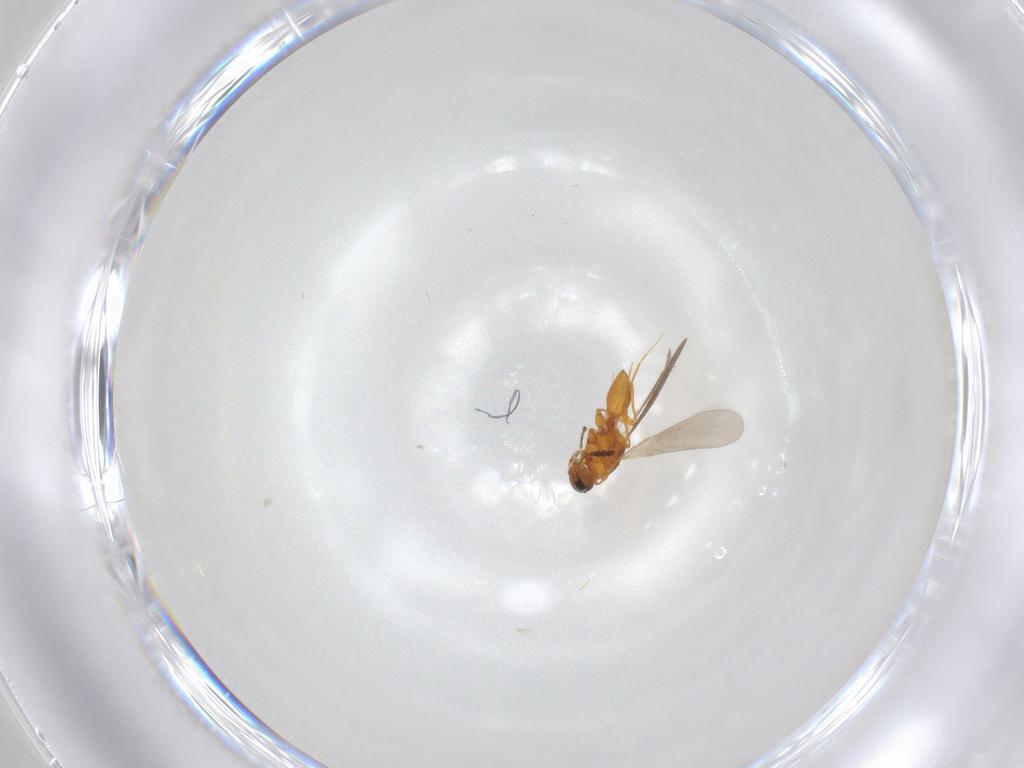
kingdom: Animalia
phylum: Arthropoda
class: Insecta
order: Hymenoptera
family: Platygastridae
